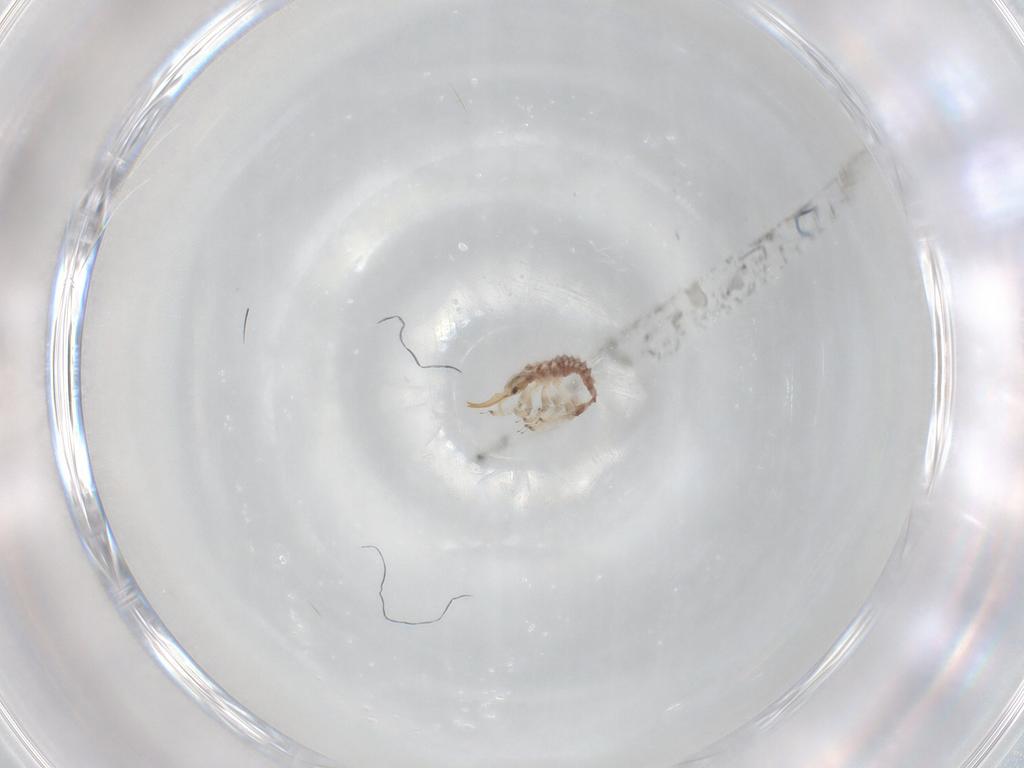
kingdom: Animalia
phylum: Arthropoda
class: Insecta
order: Neuroptera
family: Chrysopidae
